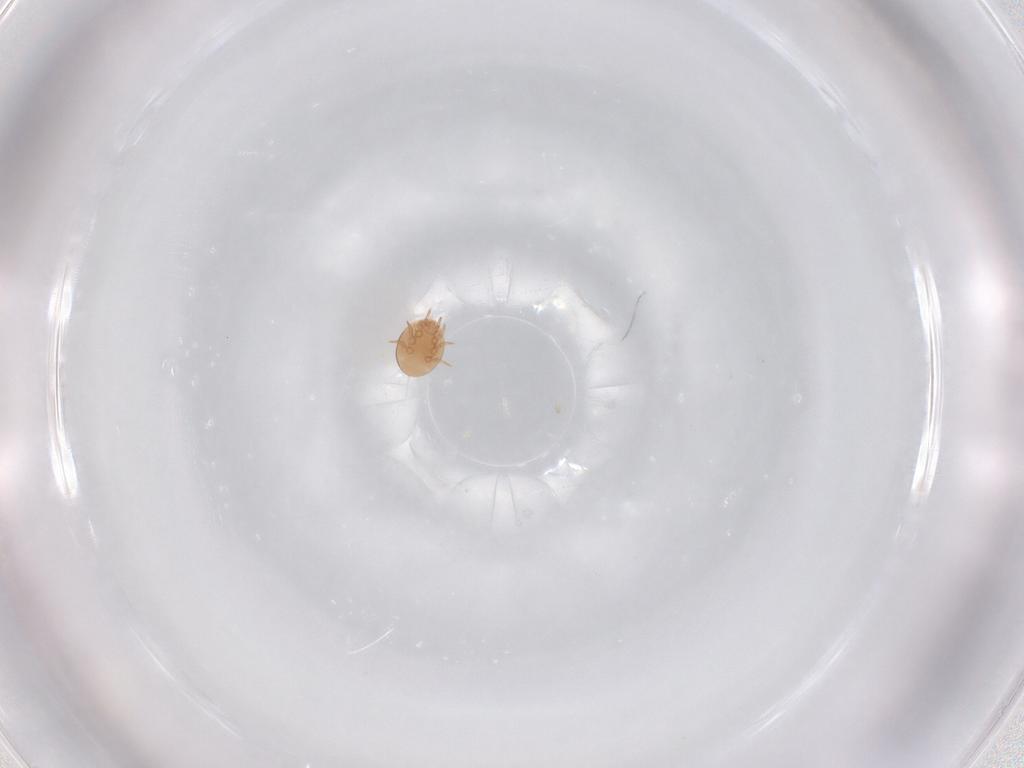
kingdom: Animalia
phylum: Arthropoda
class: Arachnida
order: Mesostigmata
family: Trematuridae
